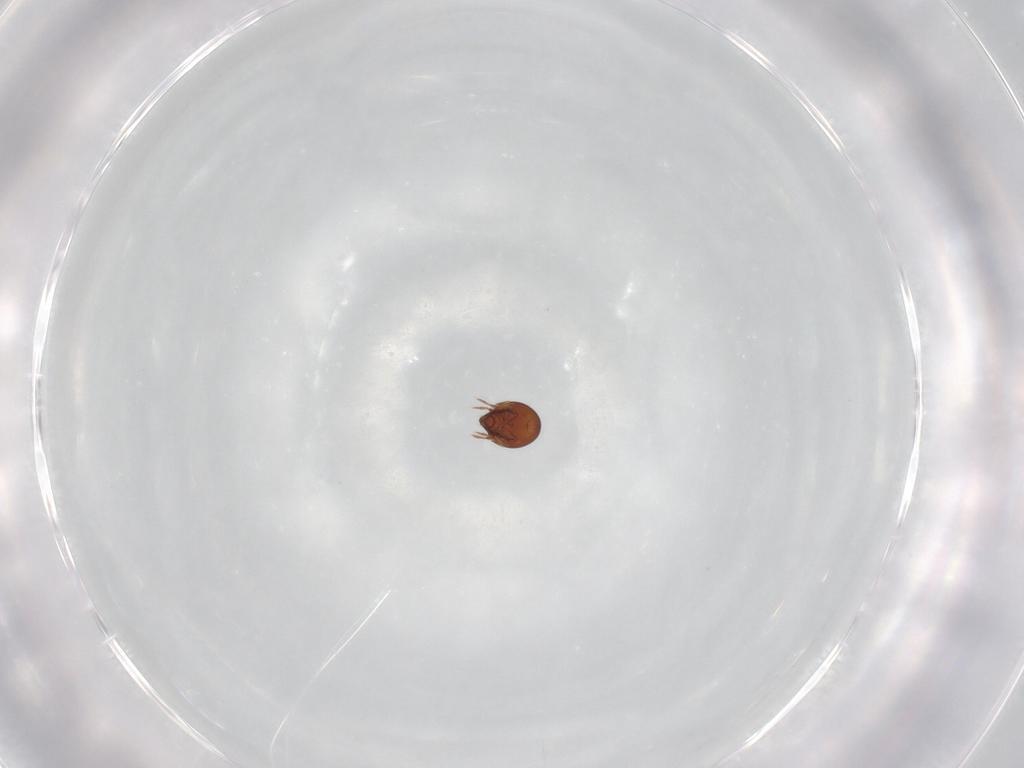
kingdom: Animalia
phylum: Arthropoda
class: Arachnida
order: Sarcoptiformes
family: Haplozetidae
